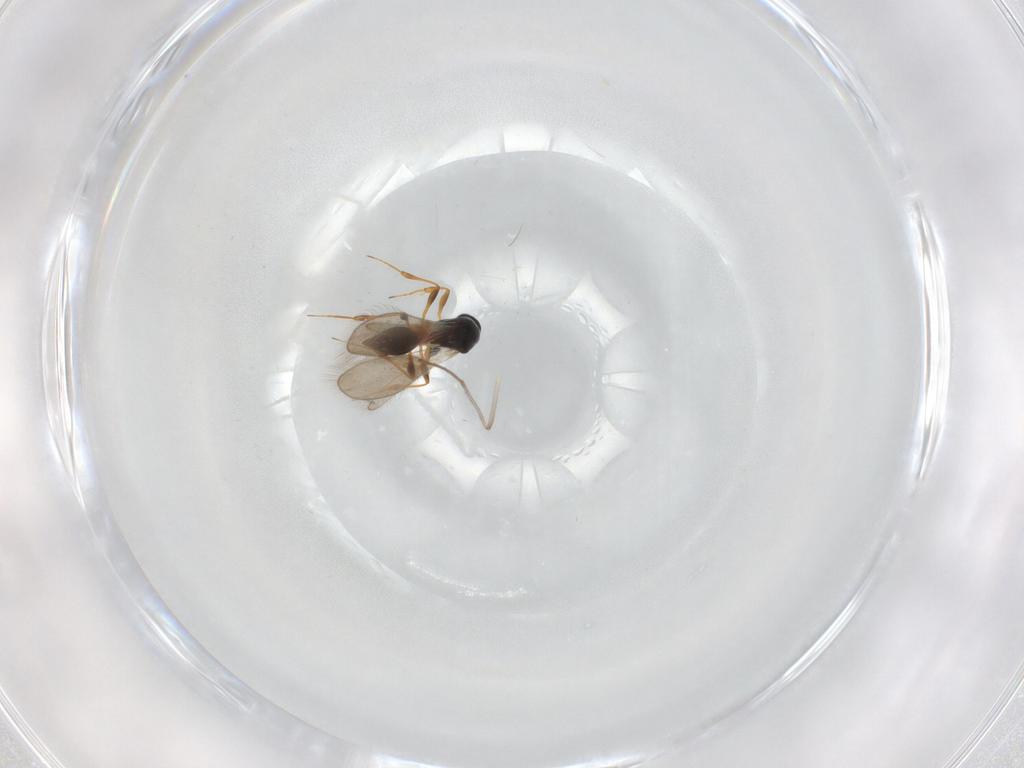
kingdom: Animalia
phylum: Arthropoda
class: Insecta
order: Hymenoptera
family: Platygastridae
